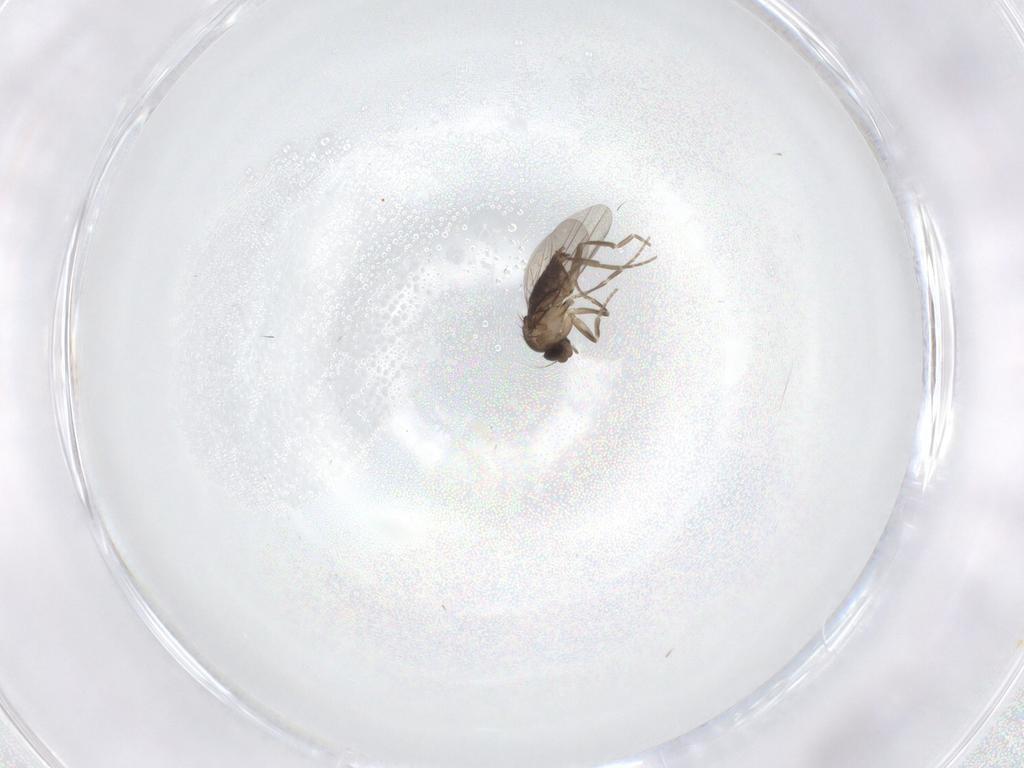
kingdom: Animalia
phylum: Arthropoda
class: Insecta
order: Diptera
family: Phoridae
